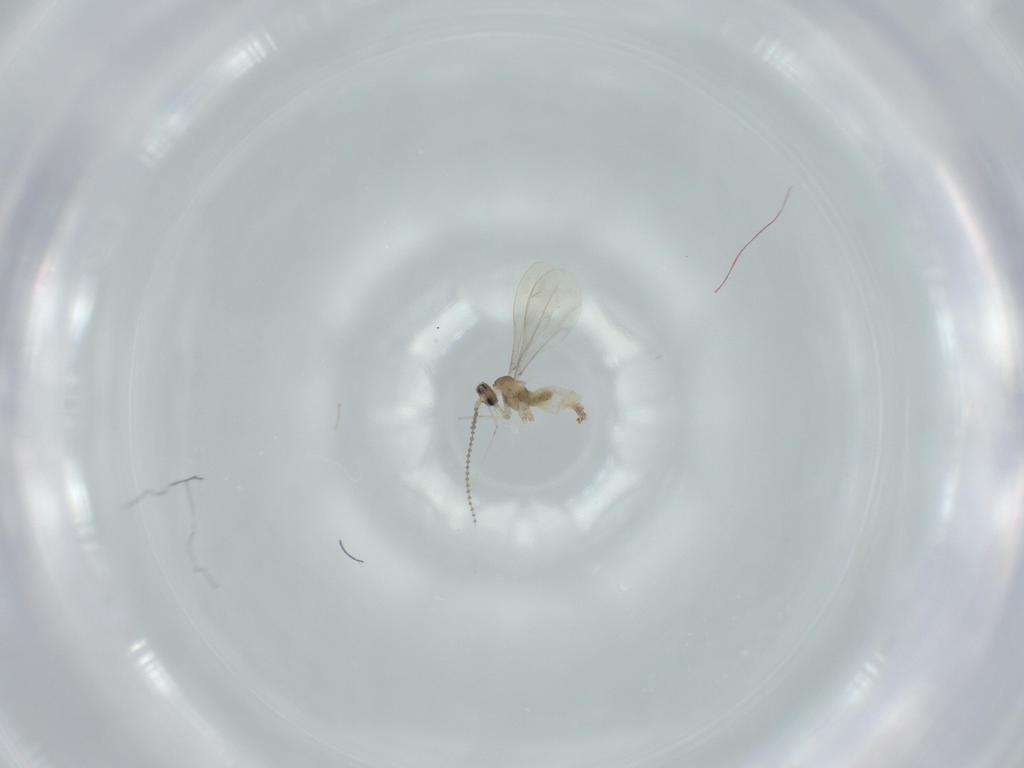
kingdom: Animalia
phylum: Arthropoda
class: Insecta
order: Diptera
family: Cecidomyiidae
